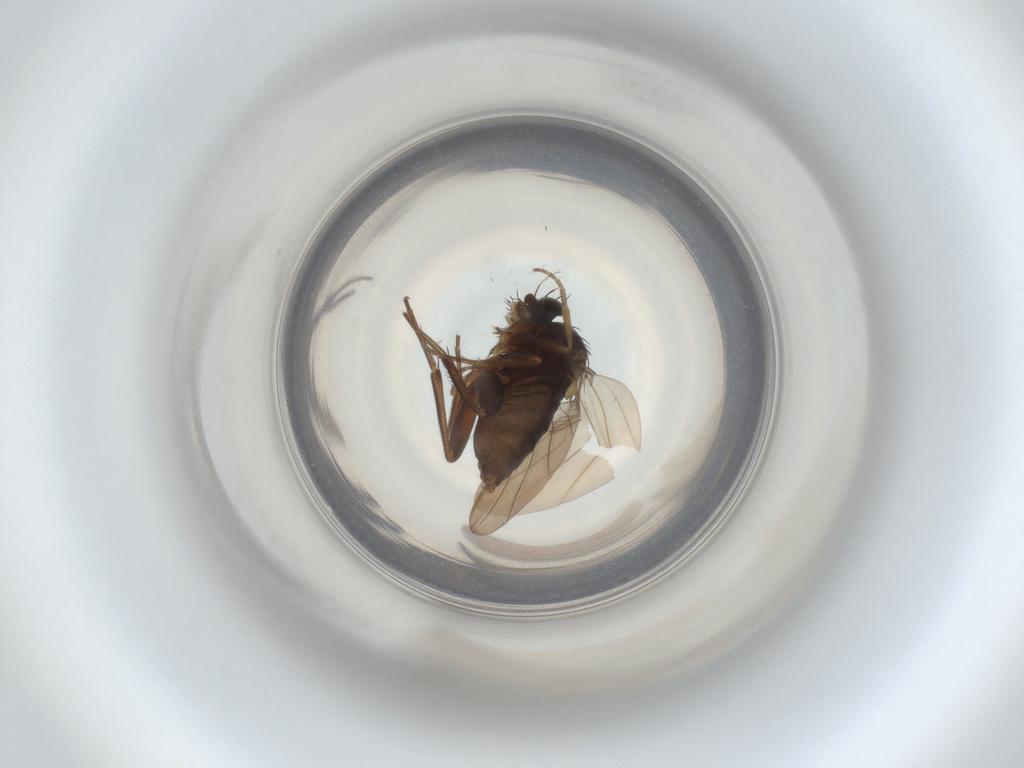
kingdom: Animalia
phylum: Arthropoda
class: Insecta
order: Diptera
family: Phoridae
